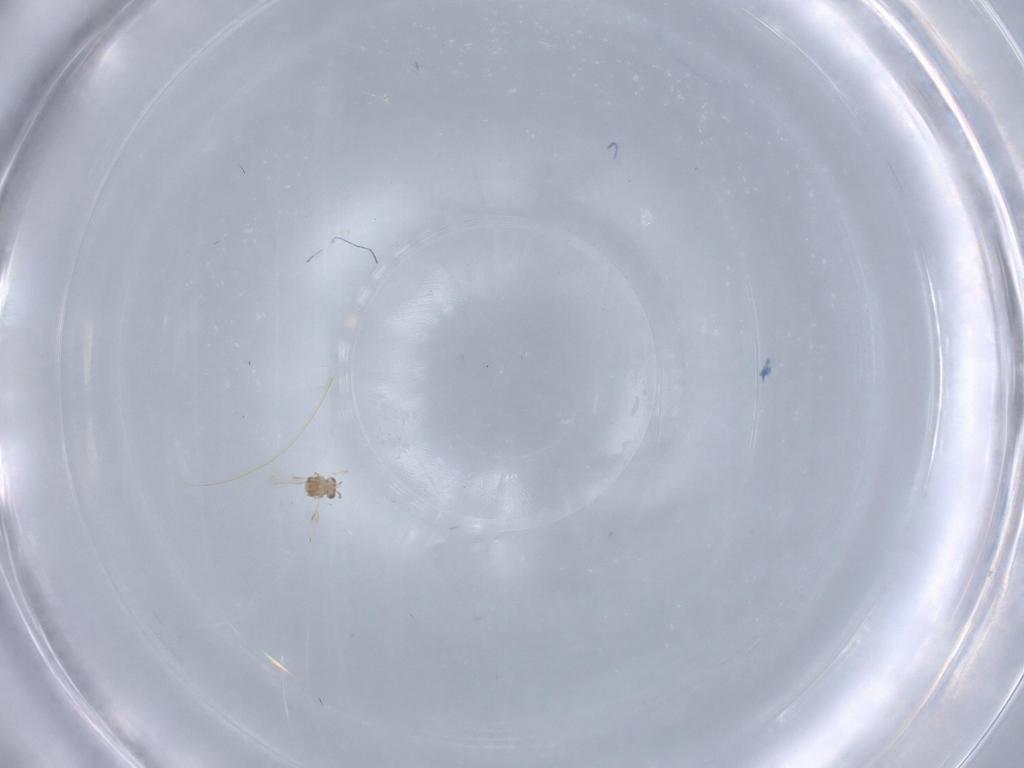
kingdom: Animalia
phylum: Arthropoda
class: Insecta
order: Blattodea
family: Ectobiidae
